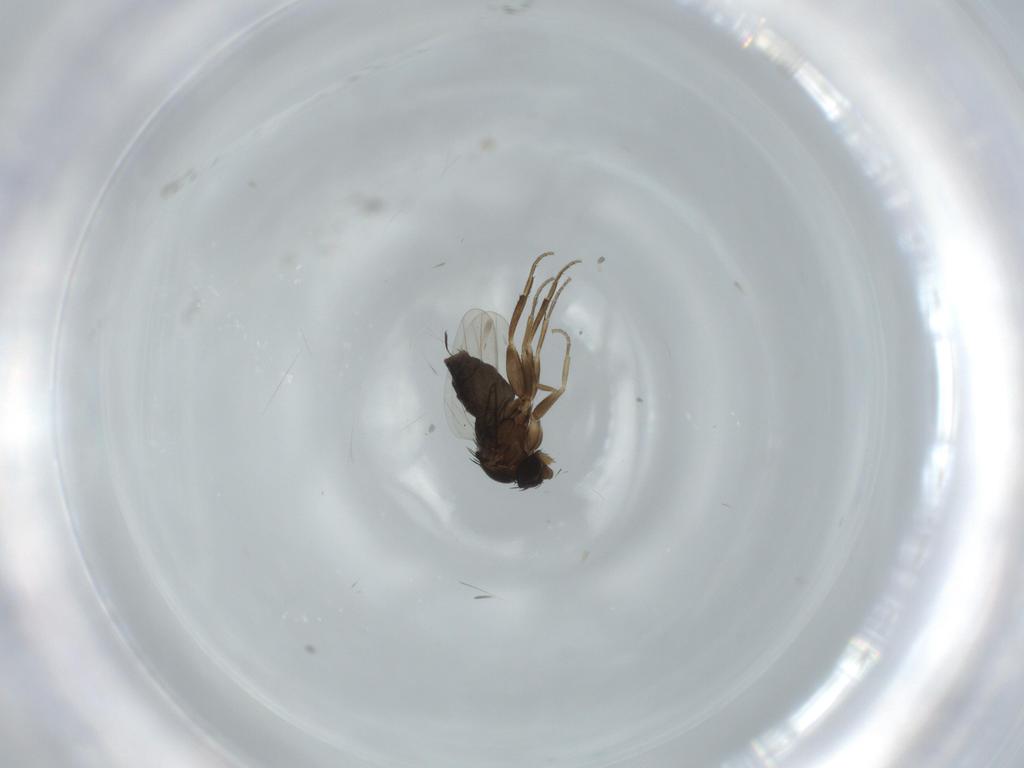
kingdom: Animalia
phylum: Arthropoda
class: Insecta
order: Diptera
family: Phoridae
